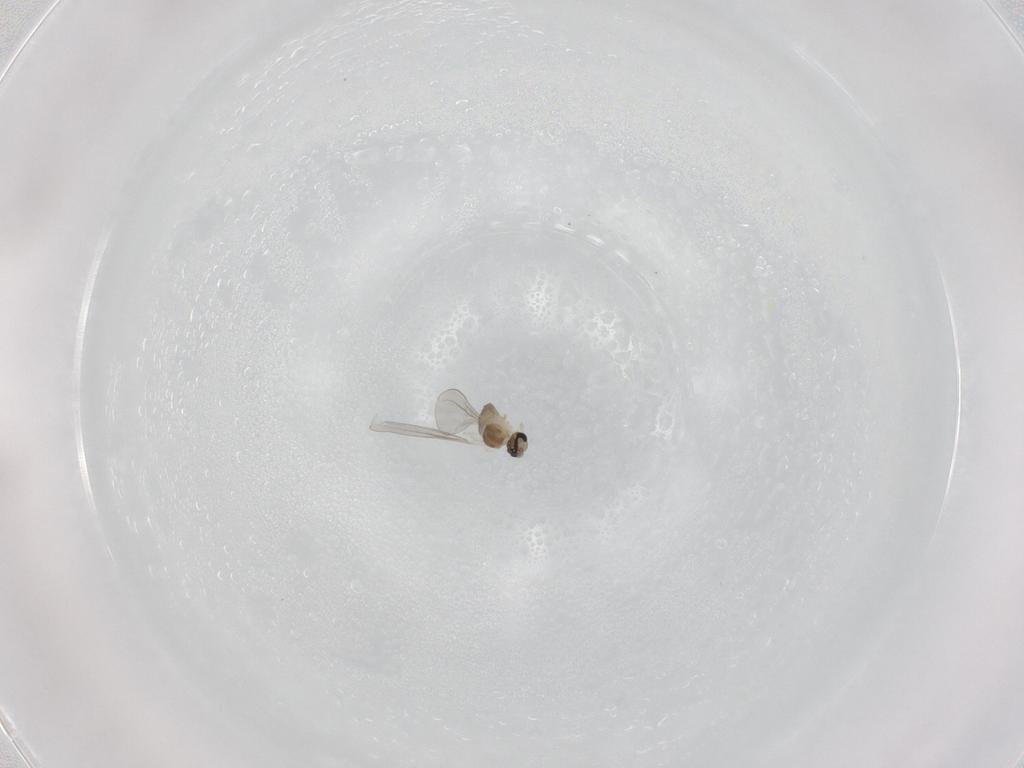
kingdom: Animalia
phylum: Arthropoda
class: Insecta
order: Diptera
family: Cecidomyiidae
